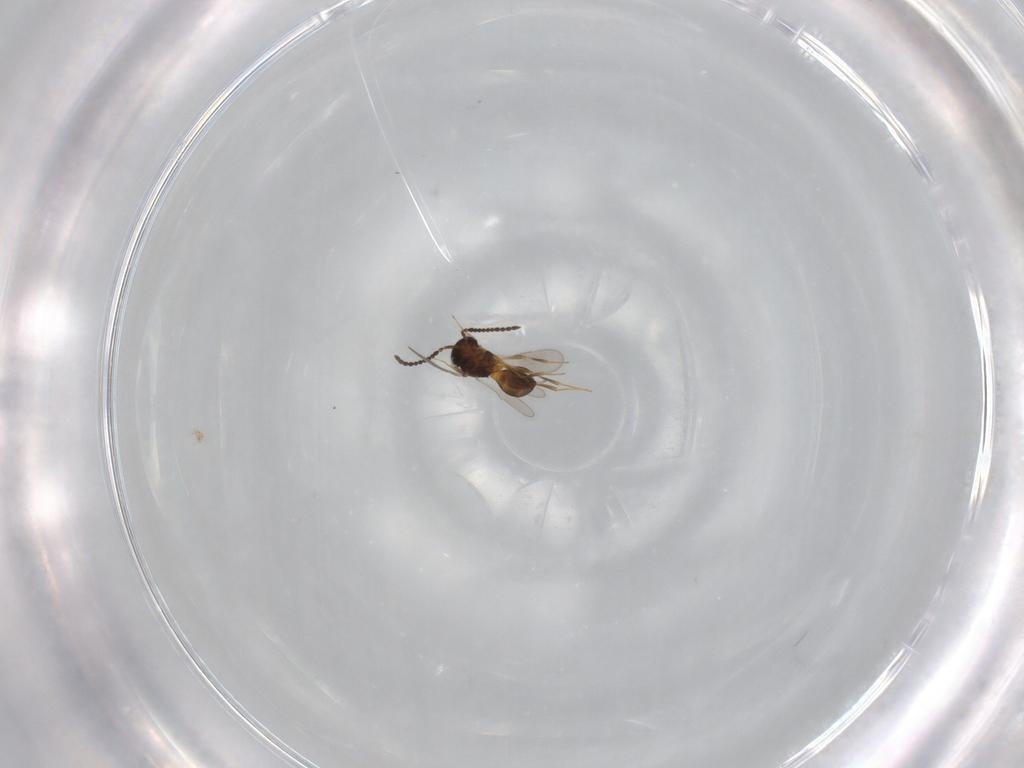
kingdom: Animalia
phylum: Arthropoda
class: Insecta
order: Hymenoptera
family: Scelionidae
